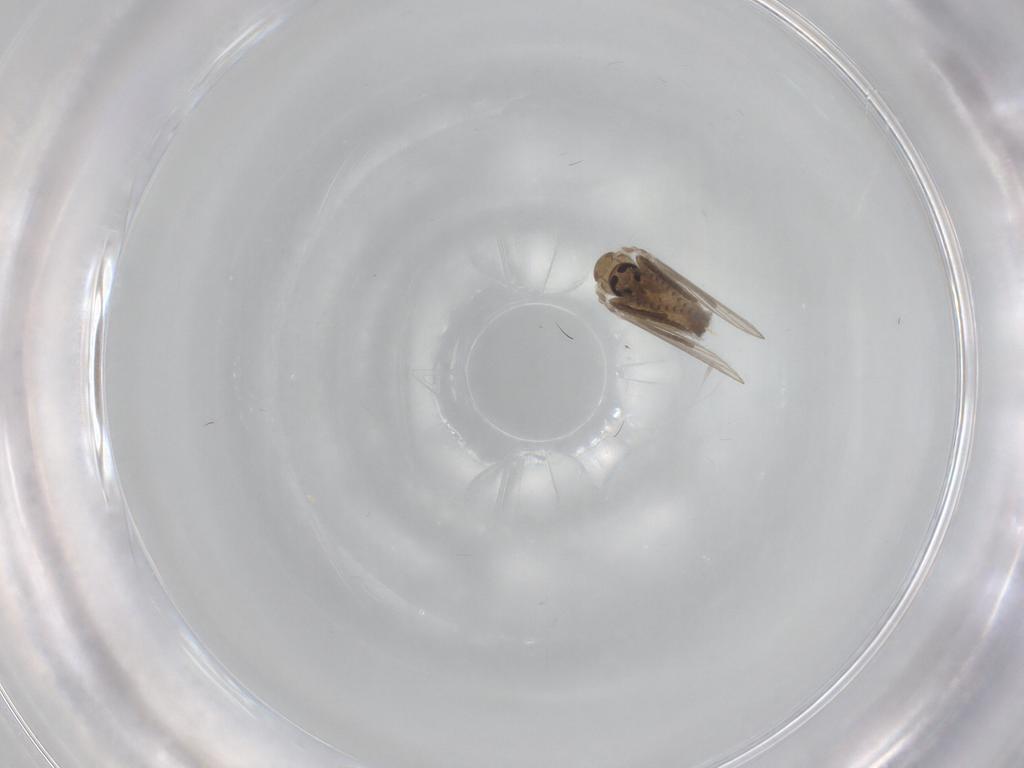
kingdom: Animalia
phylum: Arthropoda
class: Insecta
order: Diptera
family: Psychodidae
